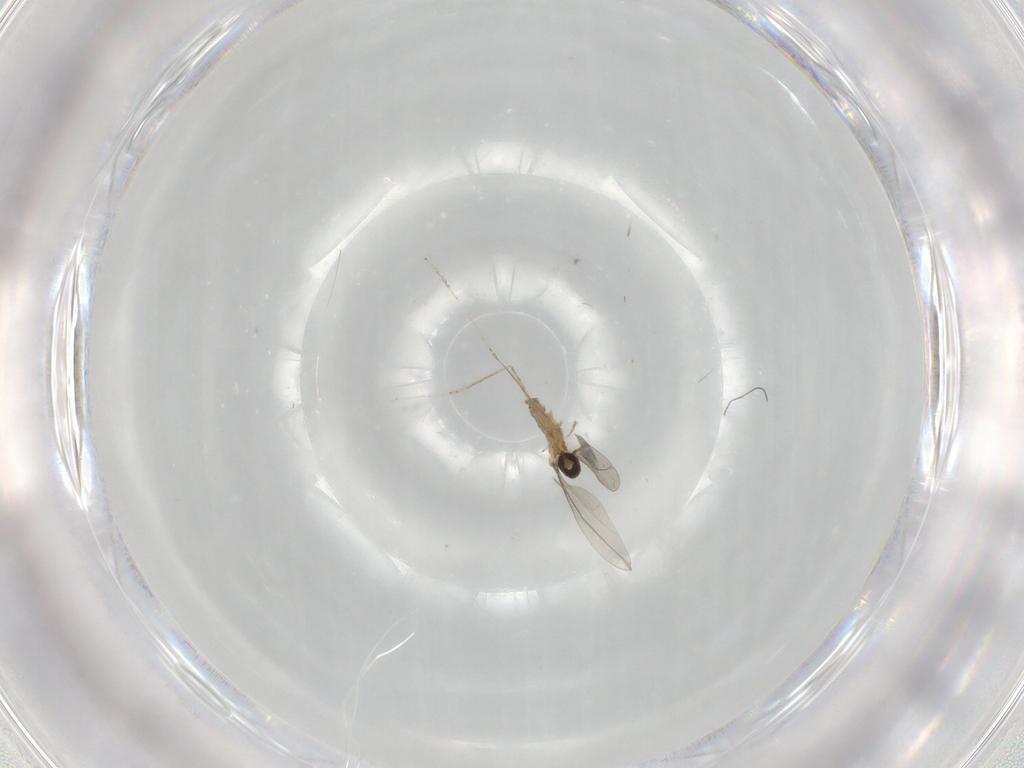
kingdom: Animalia
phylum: Arthropoda
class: Insecta
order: Diptera
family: Cecidomyiidae
